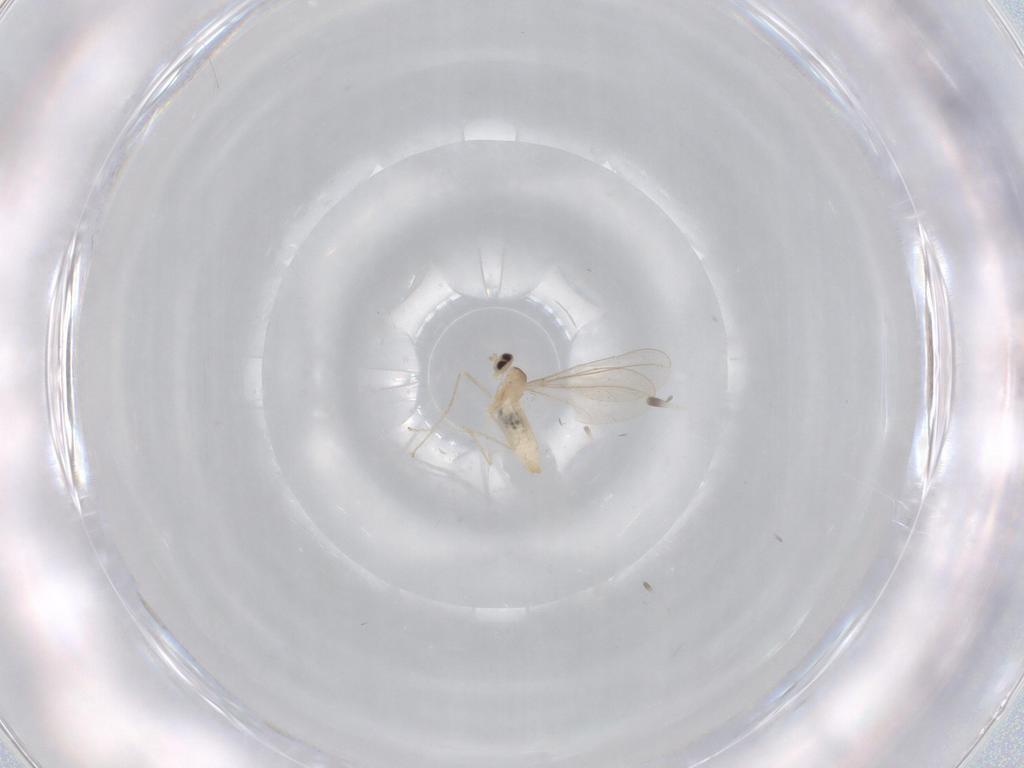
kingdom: Animalia
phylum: Arthropoda
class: Insecta
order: Diptera
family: Cecidomyiidae
